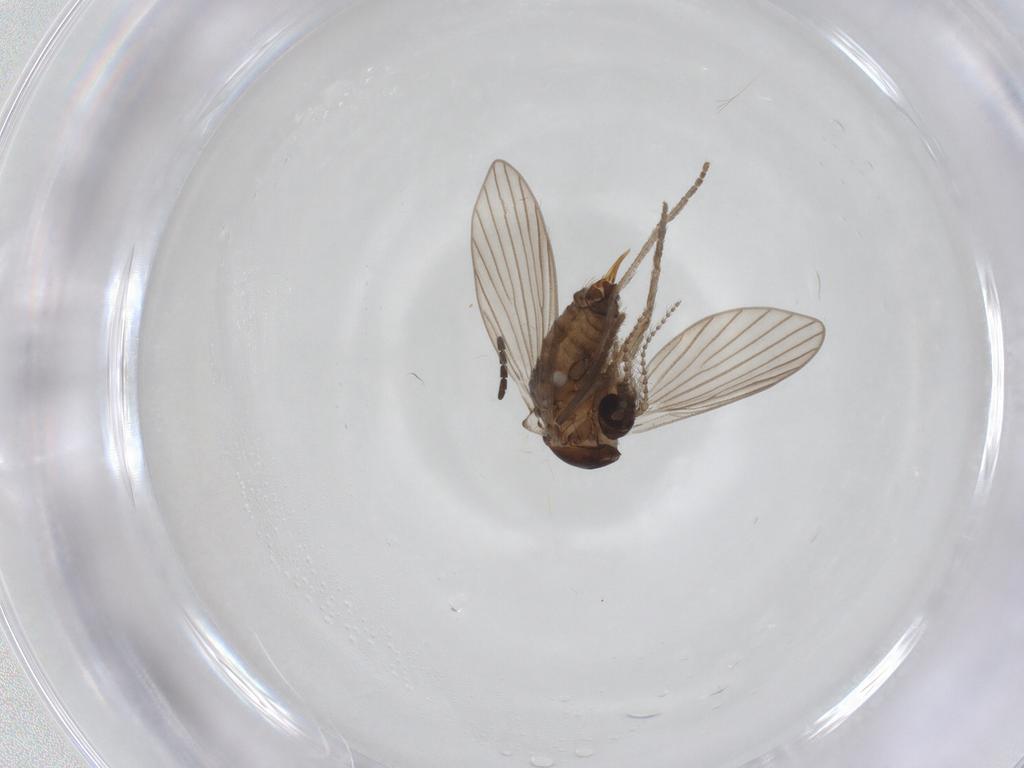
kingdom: Animalia
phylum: Arthropoda
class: Insecta
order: Diptera
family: Psychodidae
